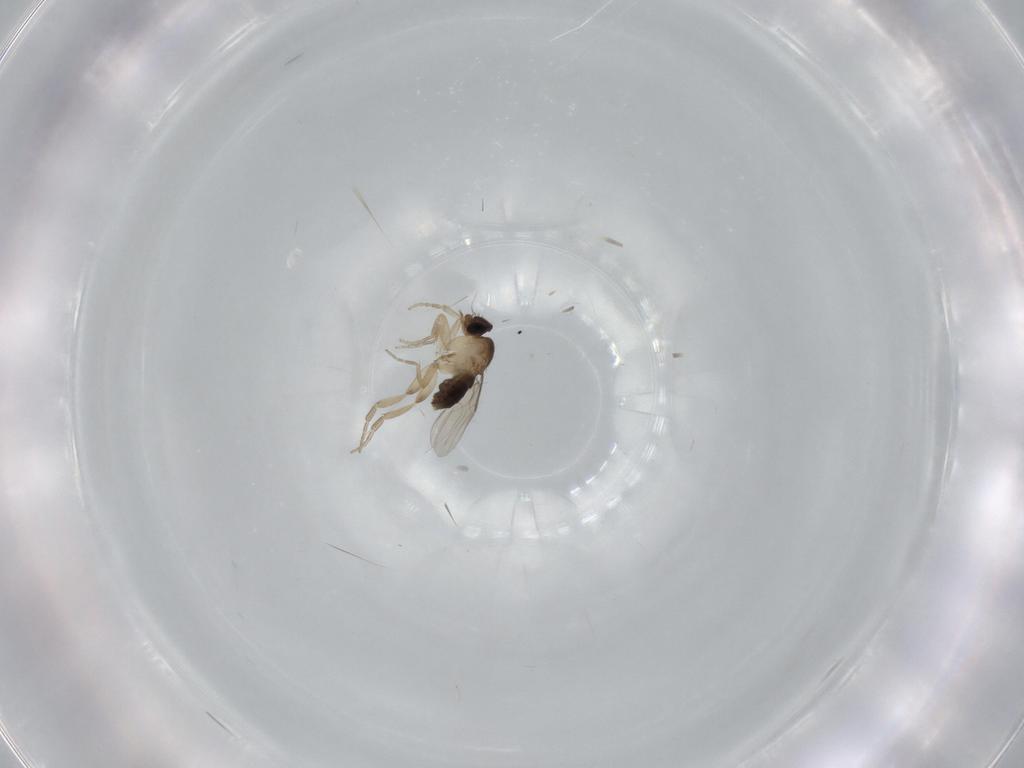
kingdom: Animalia
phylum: Arthropoda
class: Insecta
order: Diptera
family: Phoridae
